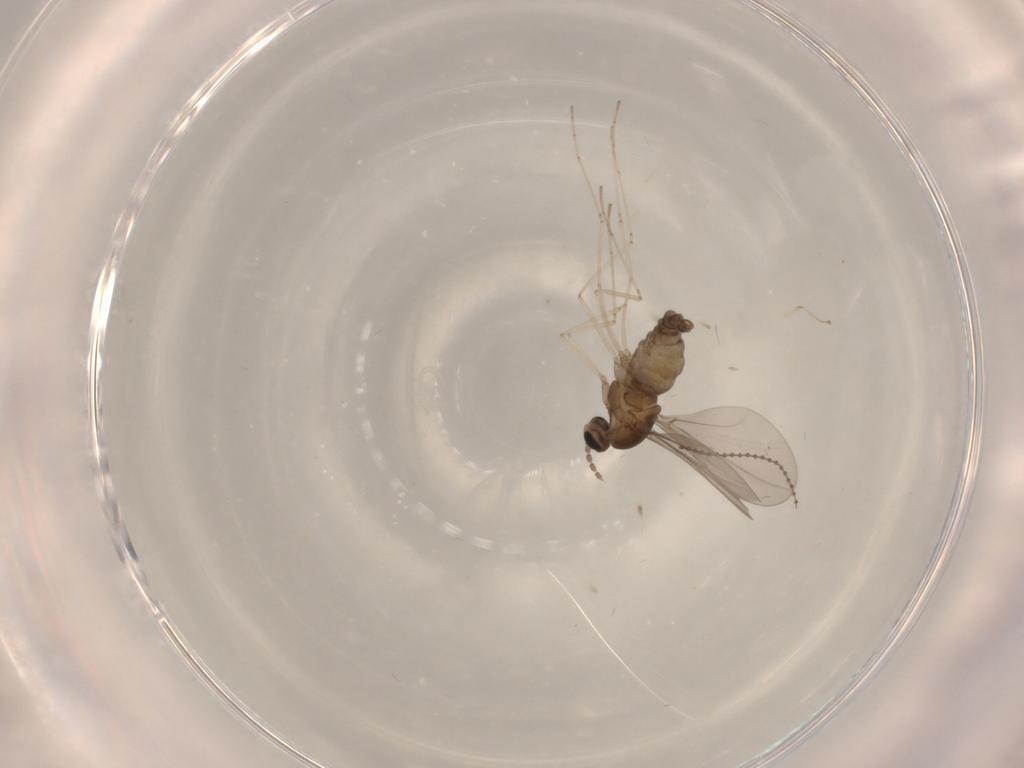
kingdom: Animalia
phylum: Arthropoda
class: Insecta
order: Diptera
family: Cecidomyiidae
